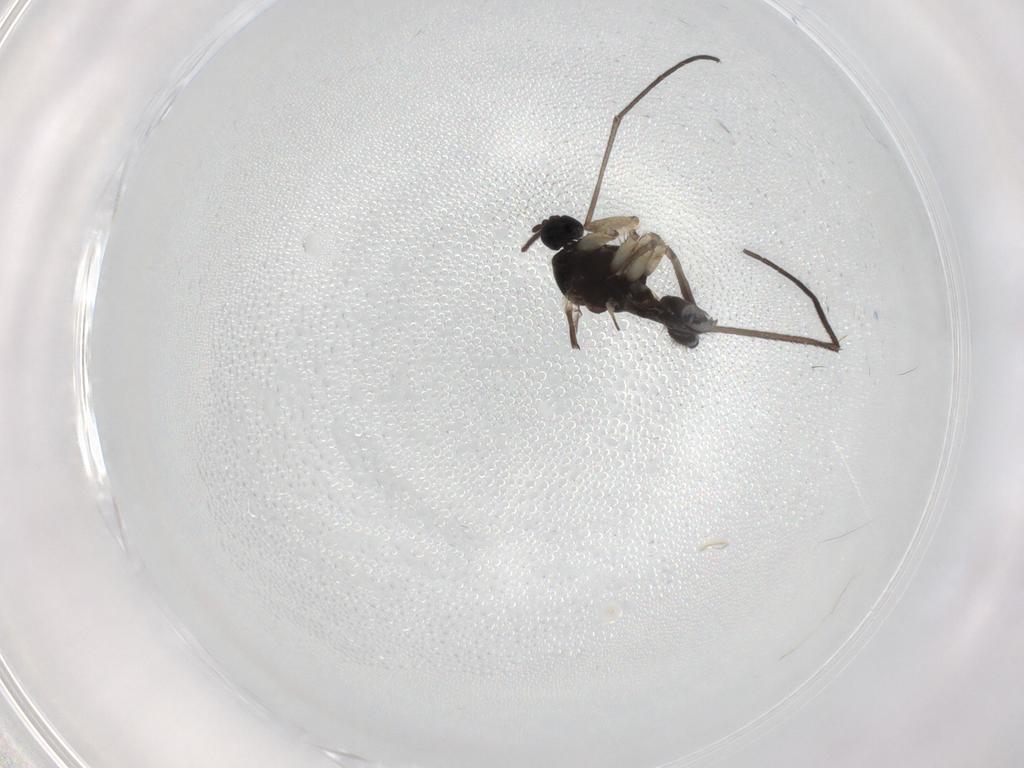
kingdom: Animalia
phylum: Arthropoda
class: Insecta
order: Diptera
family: Sciaridae
